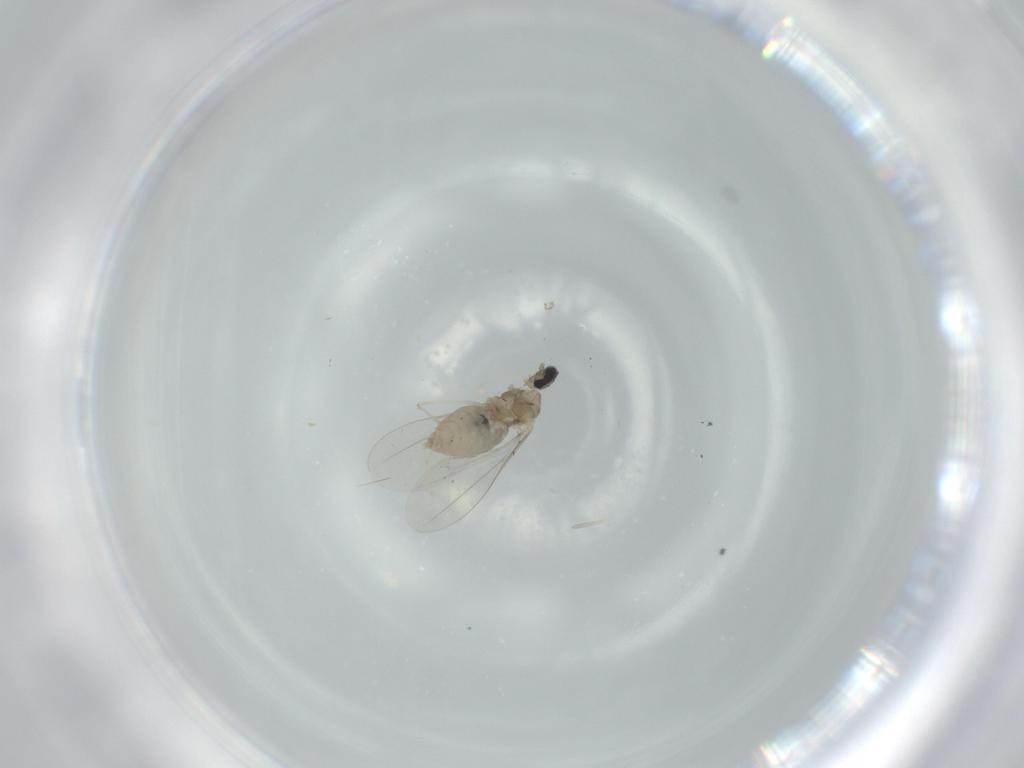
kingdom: Animalia
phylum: Arthropoda
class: Insecta
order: Diptera
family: Cecidomyiidae
